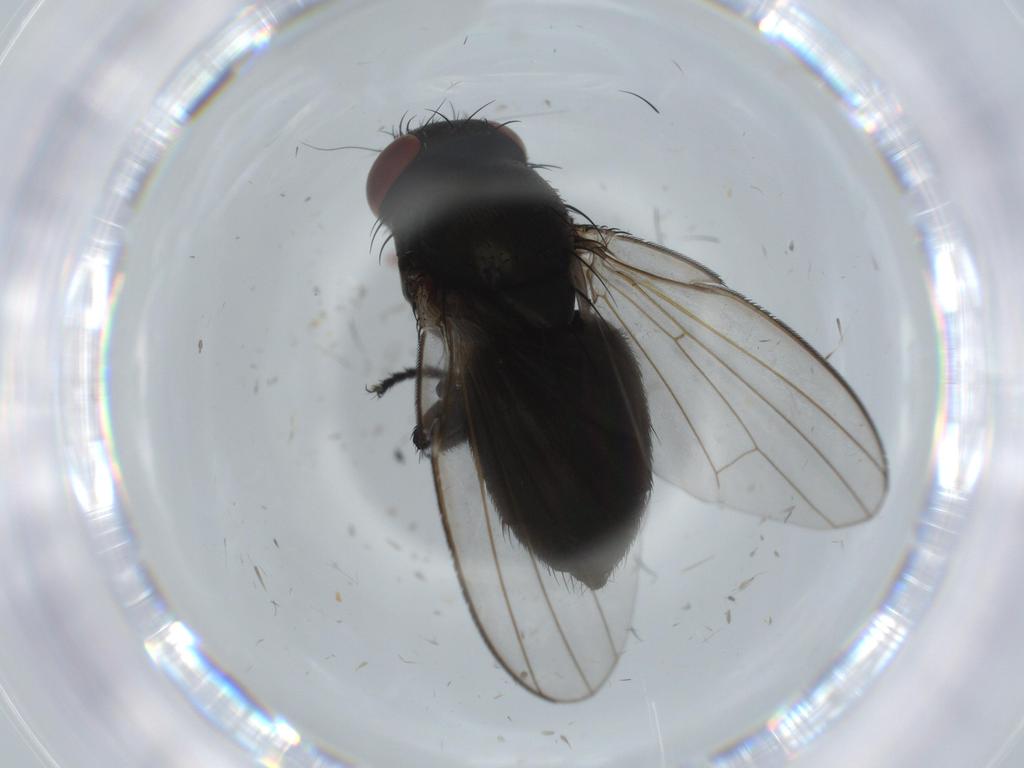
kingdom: Animalia
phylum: Arthropoda
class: Insecta
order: Diptera
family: Milichiidae
